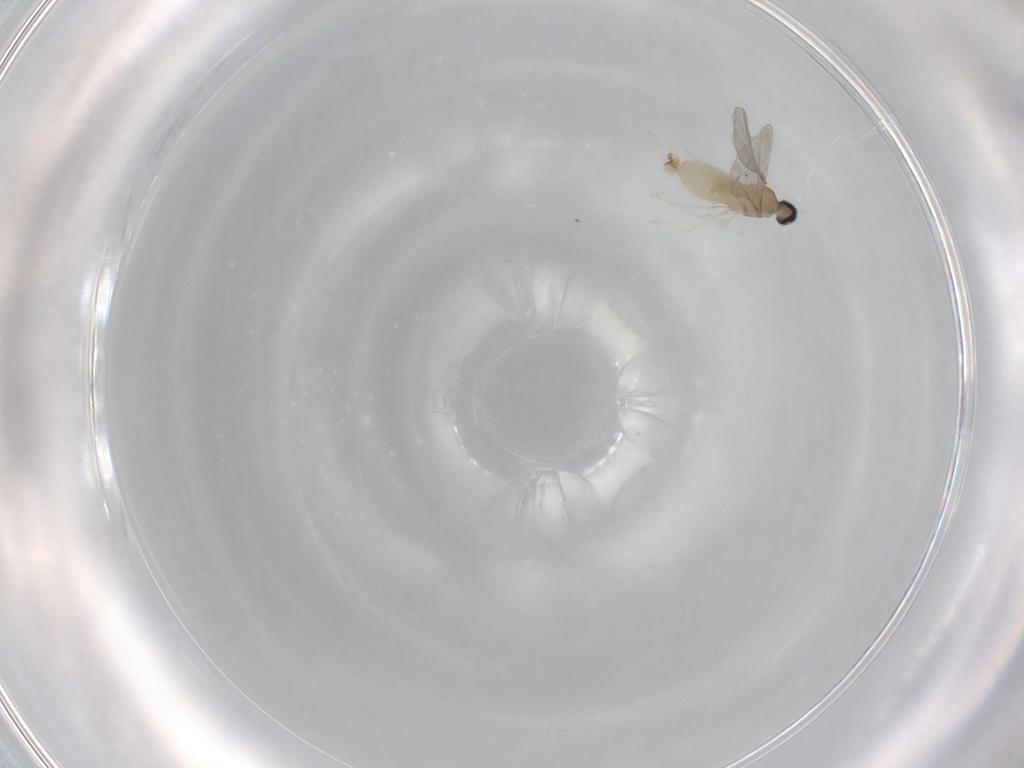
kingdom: Animalia
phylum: Arthropoda
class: Insecta
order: Diptera
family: Cecidomyiidae
